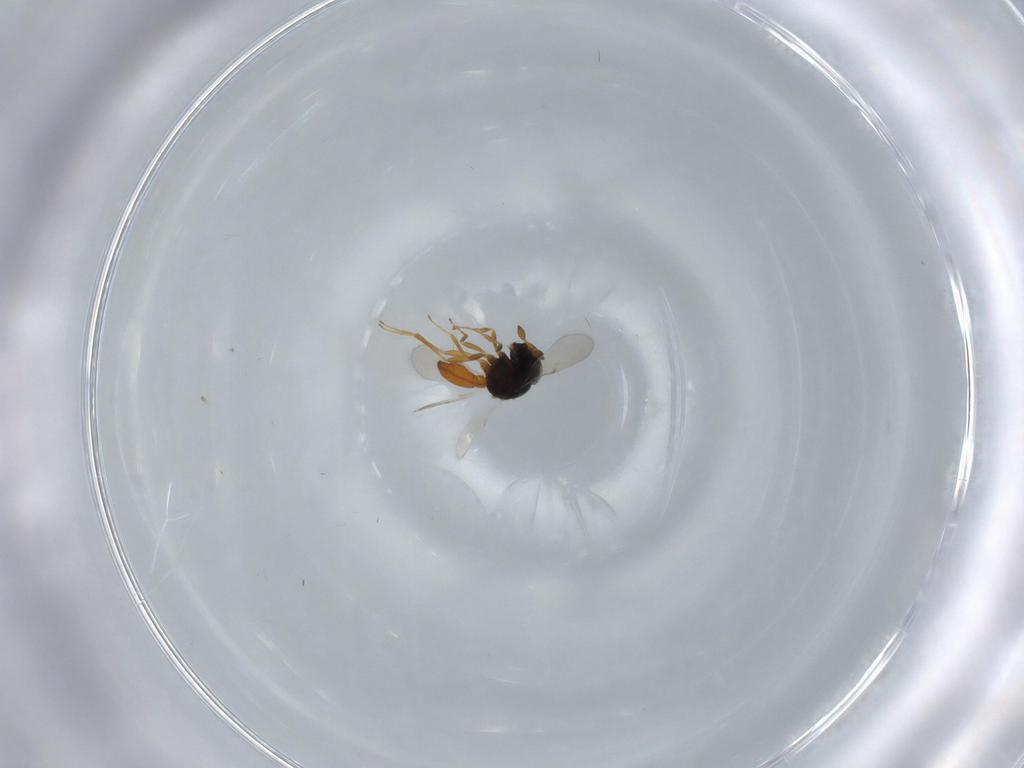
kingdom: Animalia
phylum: Arthropoda
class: Insecta
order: Hymenoptera
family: Scelionidae
